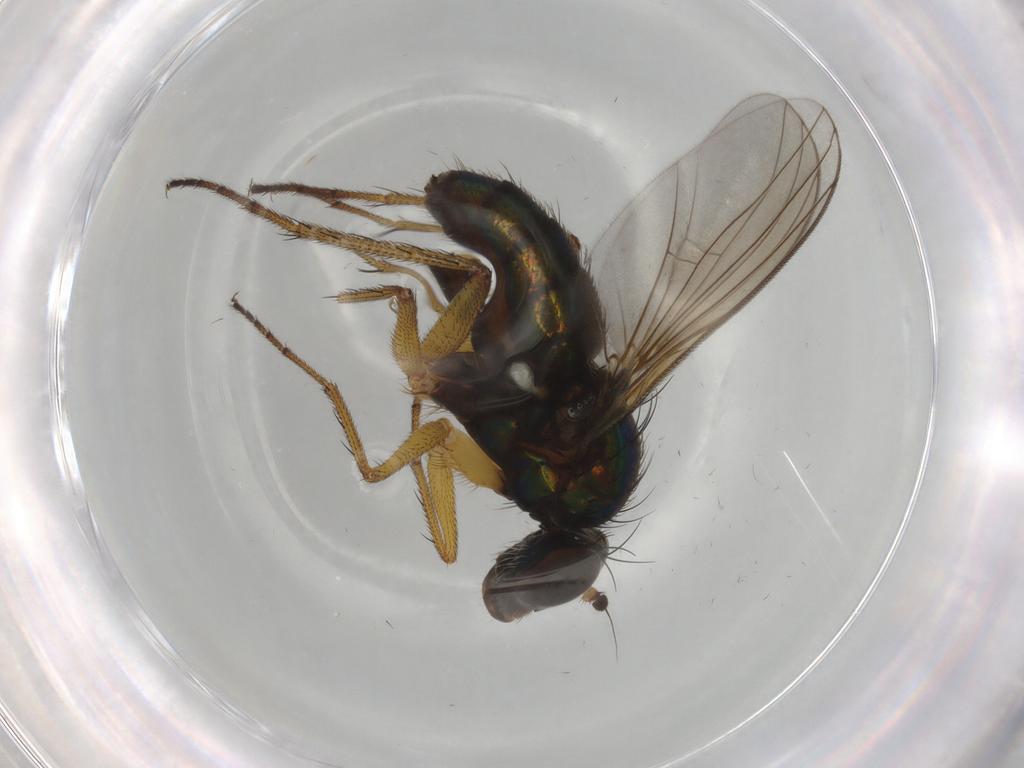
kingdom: Animalia
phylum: Arthropoda
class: Insecta
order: Diptera
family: Chironomidae
